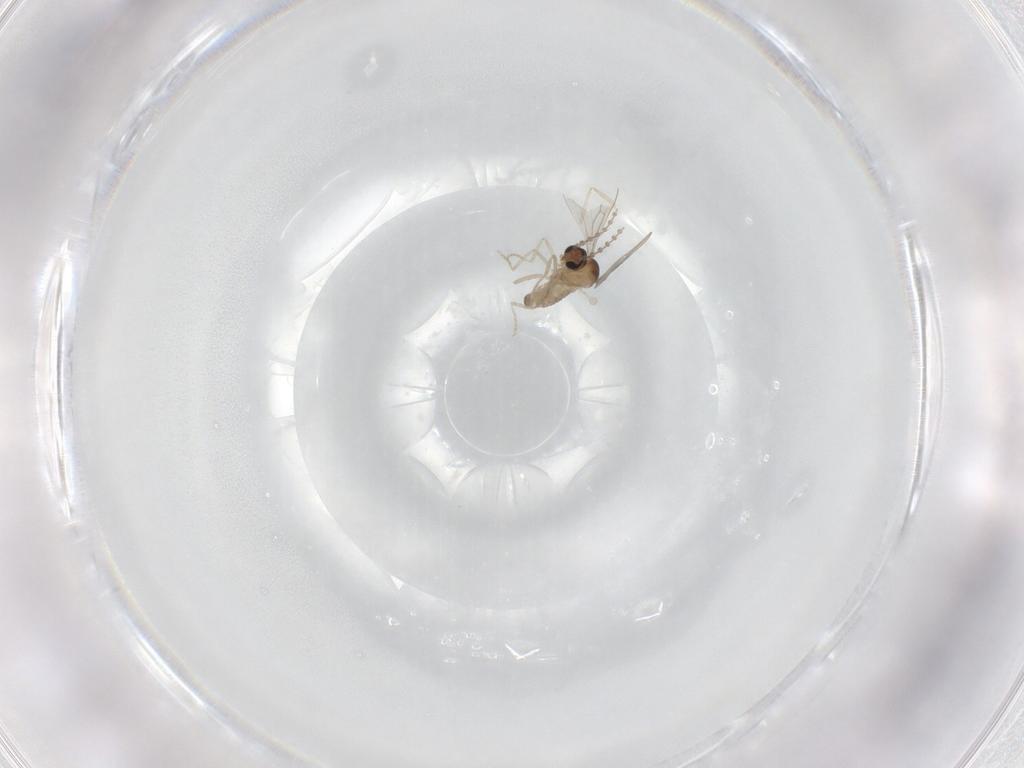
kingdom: Animalia
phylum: Arthropoda
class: Insecta
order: Diptera
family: Cecidomyiidae
